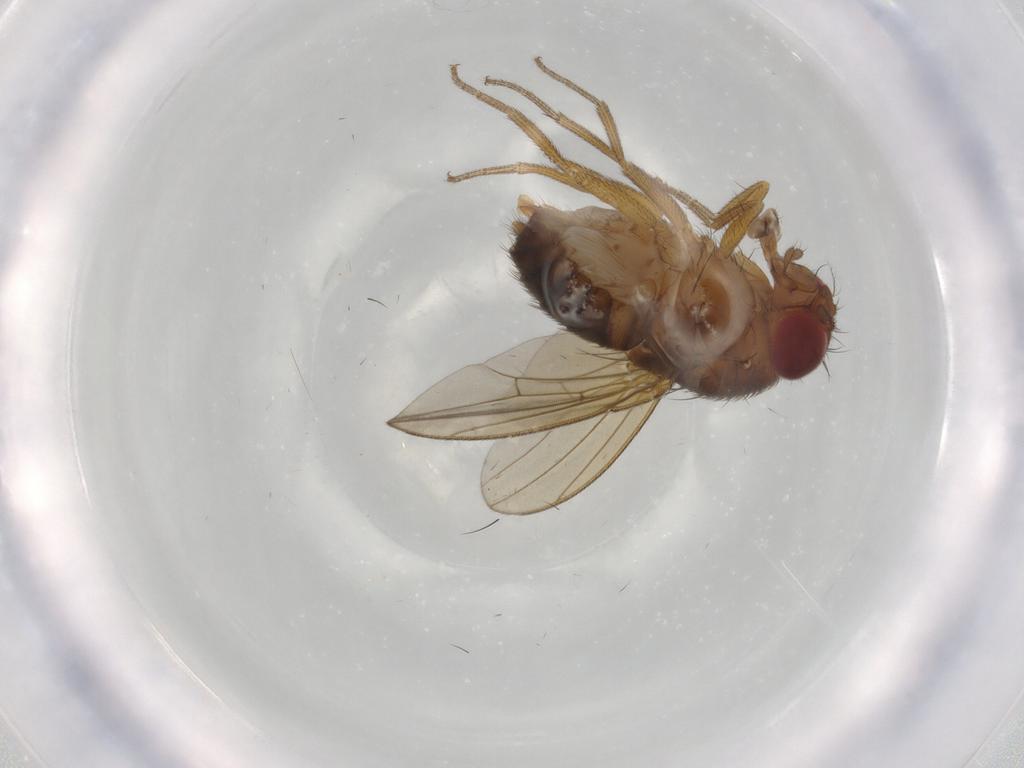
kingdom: Animalia
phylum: Arthropoda
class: Insecta
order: Diptera
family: Drosophilidae
